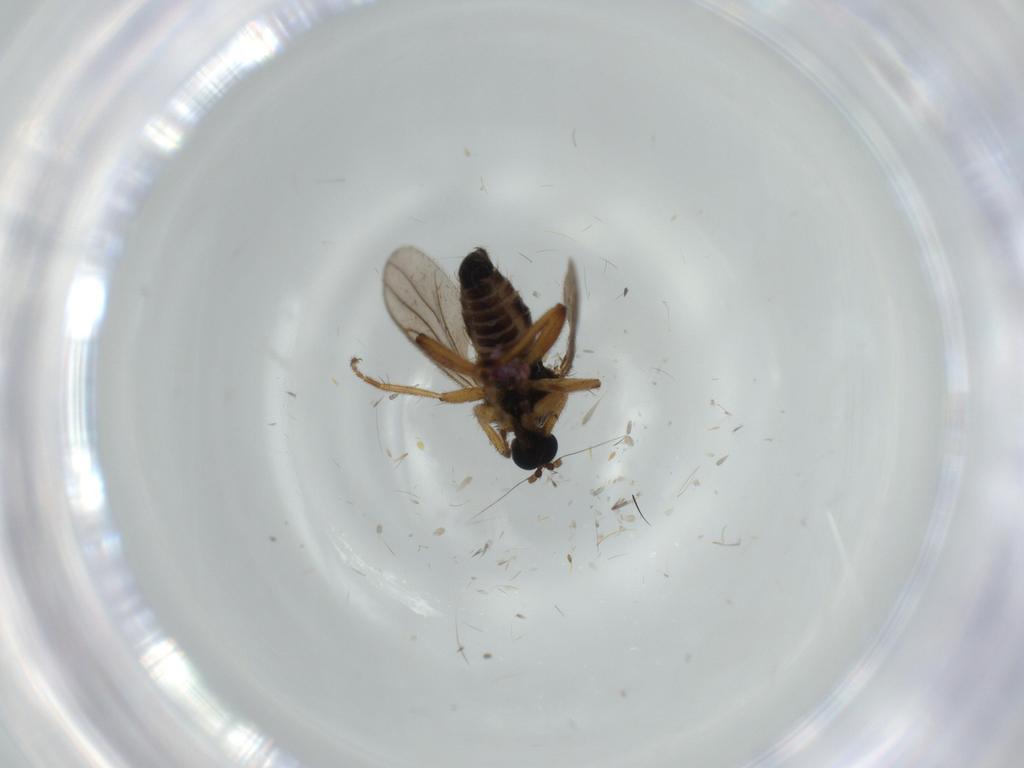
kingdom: Animalia
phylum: Arthropoda
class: Insecta
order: Diptera
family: Hybotidae
